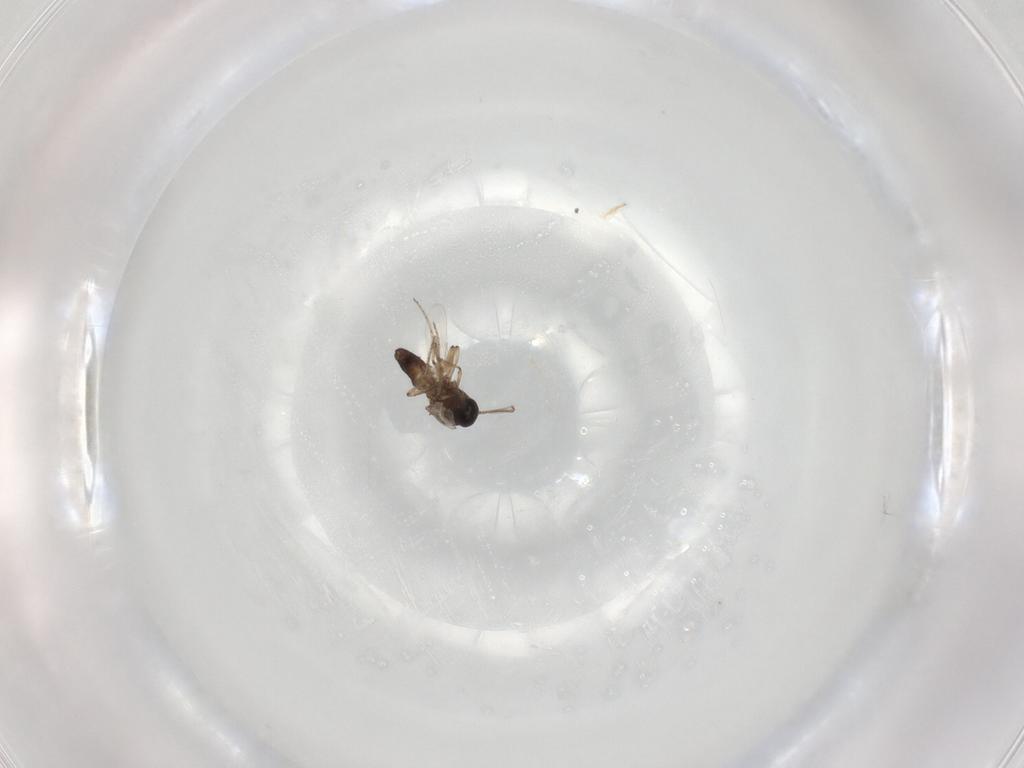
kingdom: Animalia
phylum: Arthropoda
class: Insecta
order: Diptera
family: Ceratopogonidae
